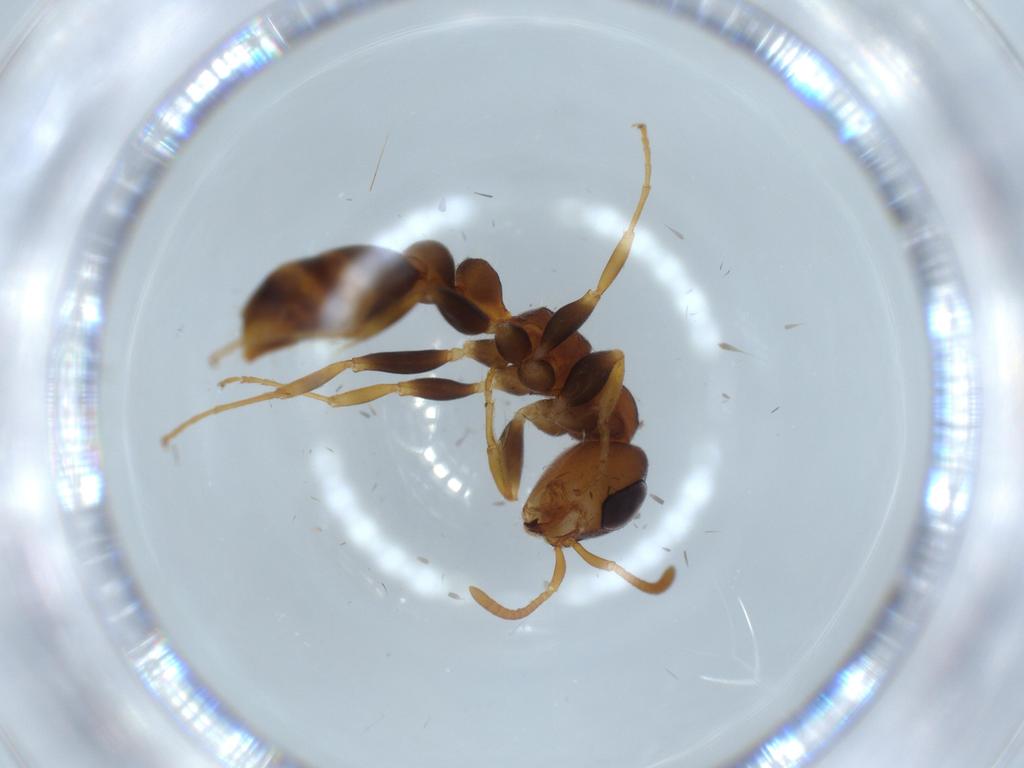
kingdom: Animalia
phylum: Arthropoda
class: Insecta
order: Hymenoptera
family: Formicidae
